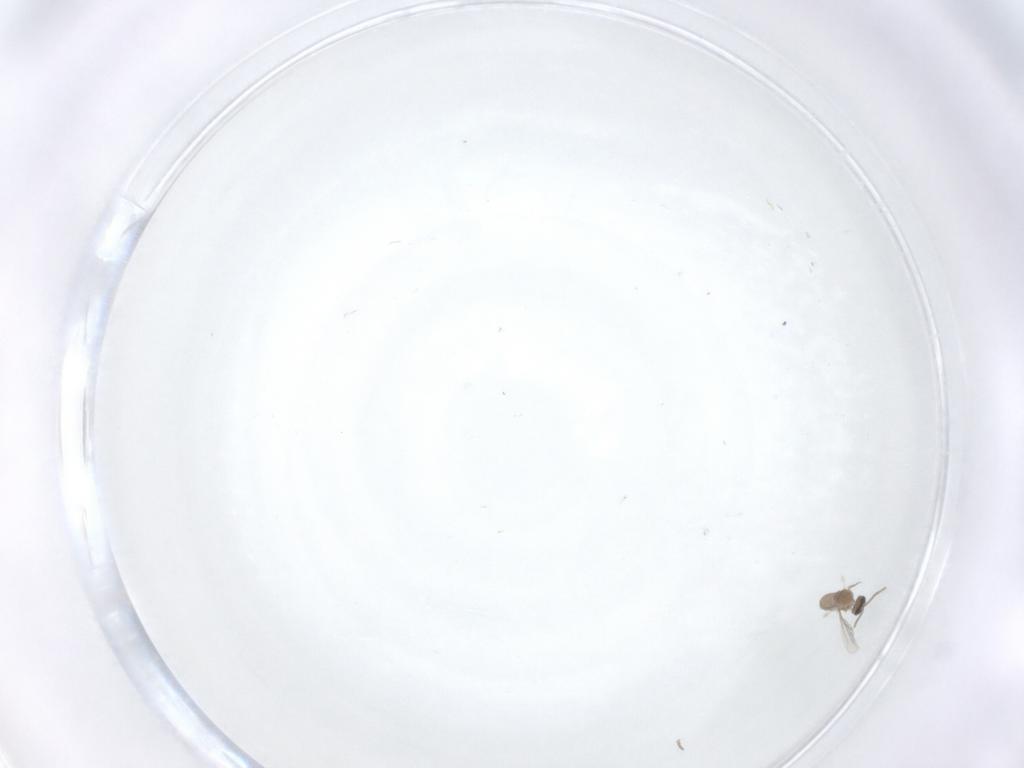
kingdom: Animalia
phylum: Arthropoda
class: Insecta
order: Diptera
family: Cecidomyiidae
